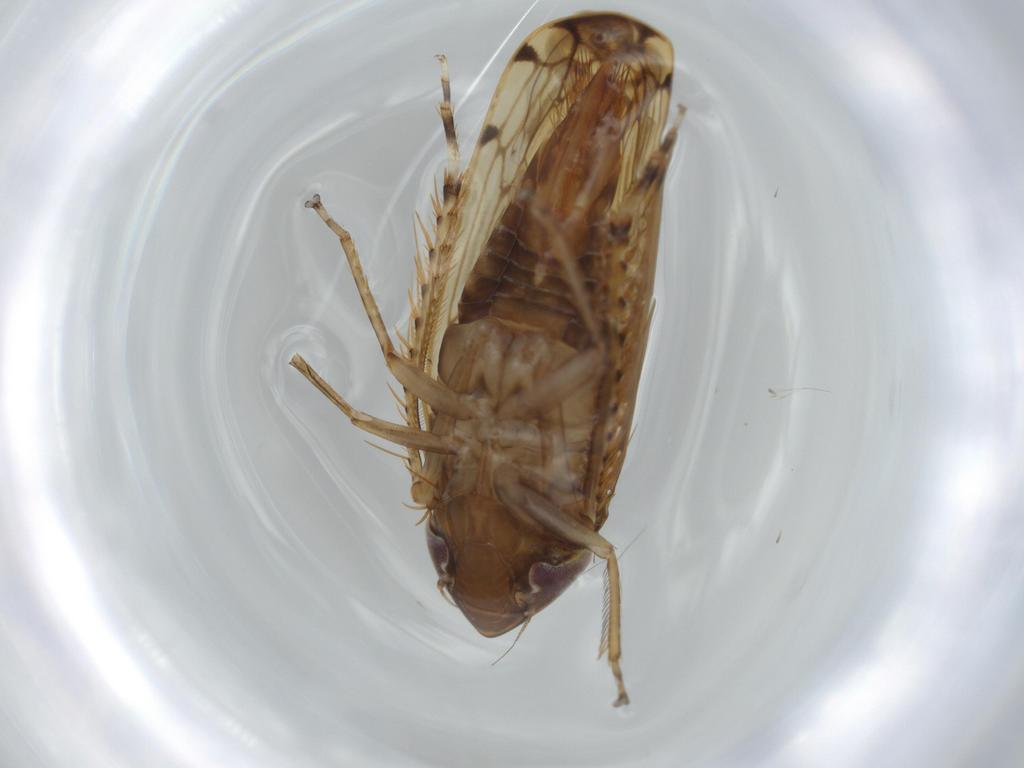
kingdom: Animalia
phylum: Arthropoda
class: Insecta
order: Hemiptera
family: Cicadellidae
